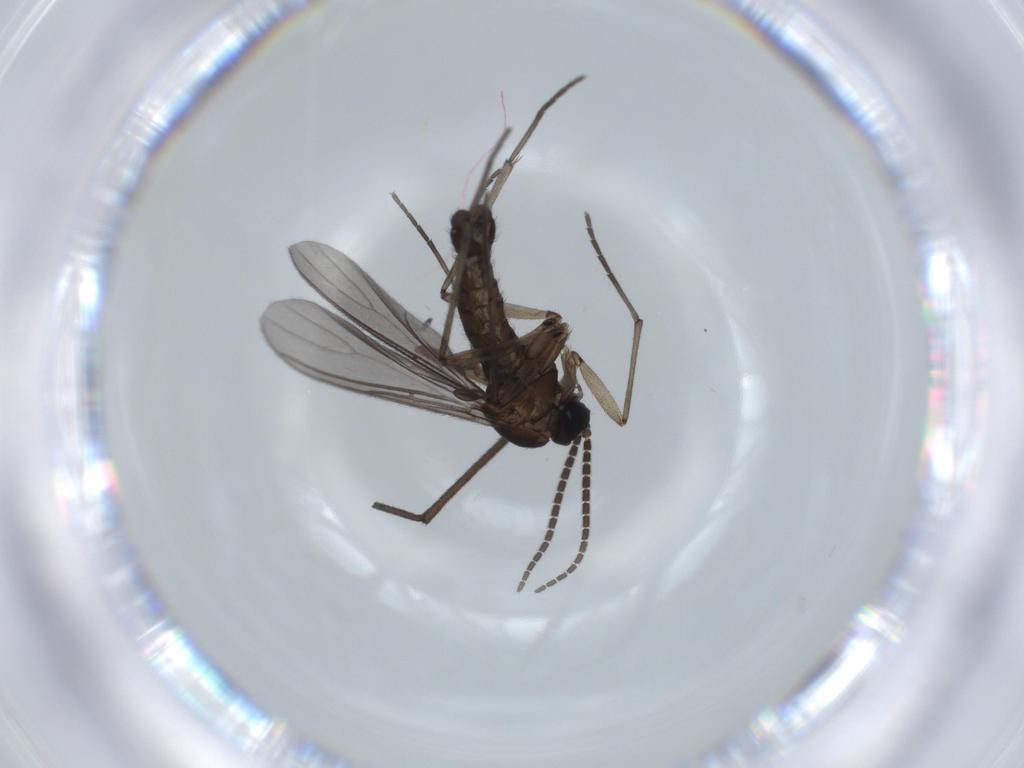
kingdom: Animalia
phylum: Arthropoda
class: Insecta
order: Diptera
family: Sciaridae
